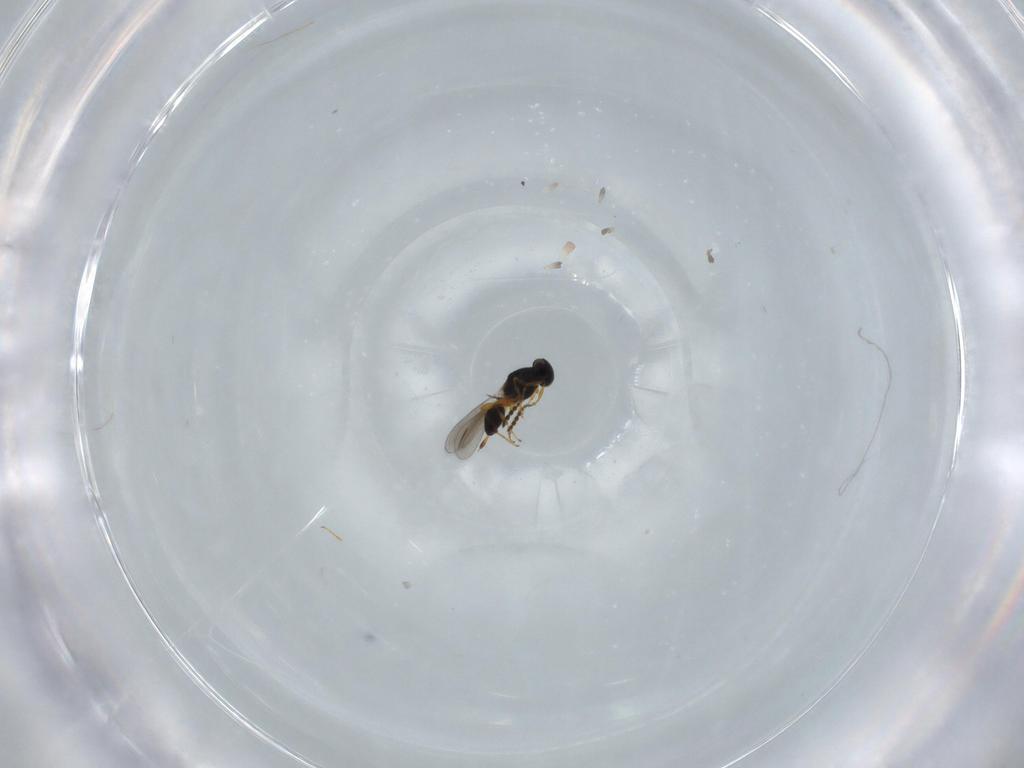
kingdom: Animalia
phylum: Arthropoda
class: Insecta
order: Hymenoptera
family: Platygastridae
